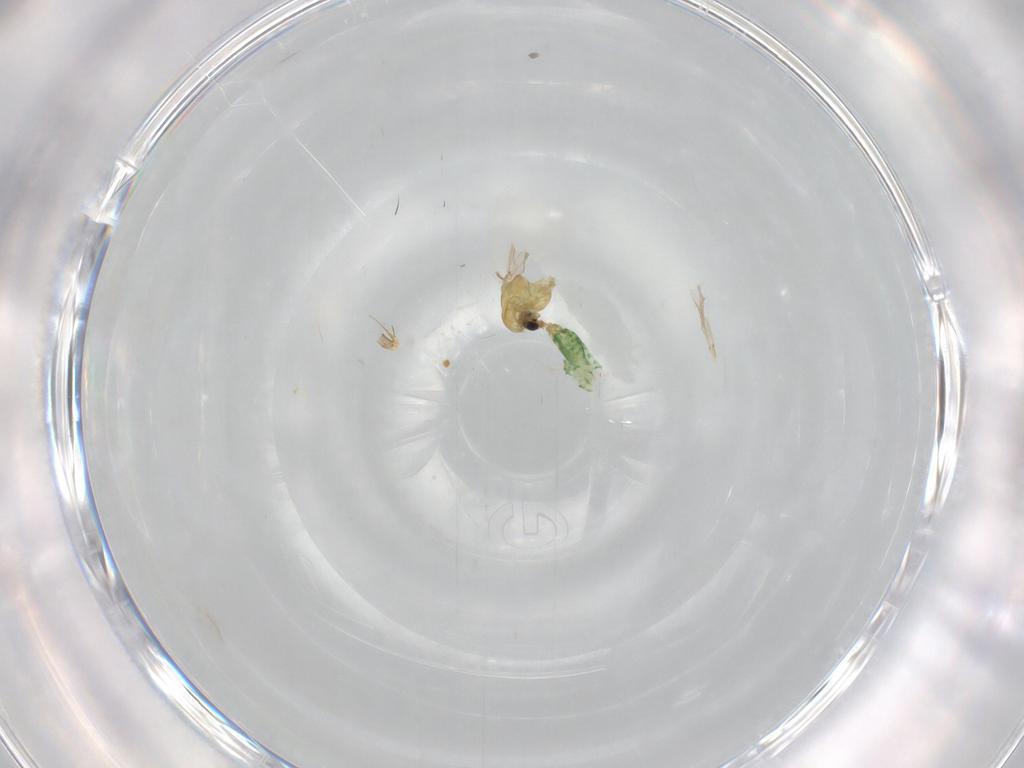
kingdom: Animalia
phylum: Arthropoda
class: Insecta
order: Diptera
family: Chironomidae
